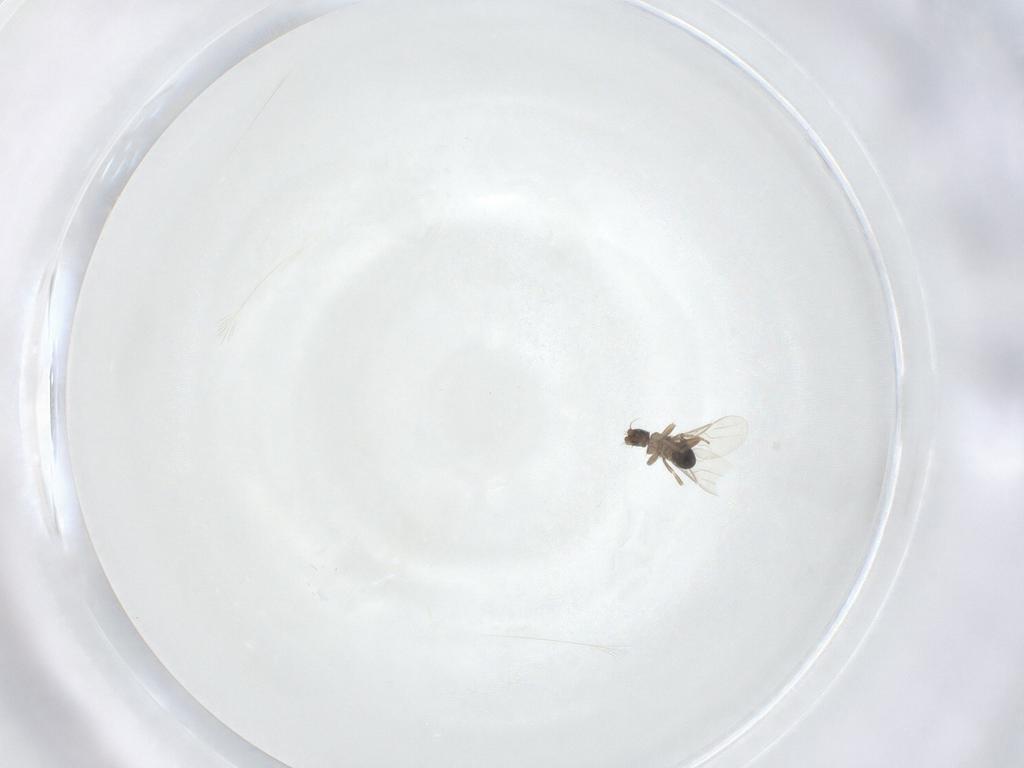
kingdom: Animalia
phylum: Arthropoda
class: Insecta
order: Diptera
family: Phoridae
